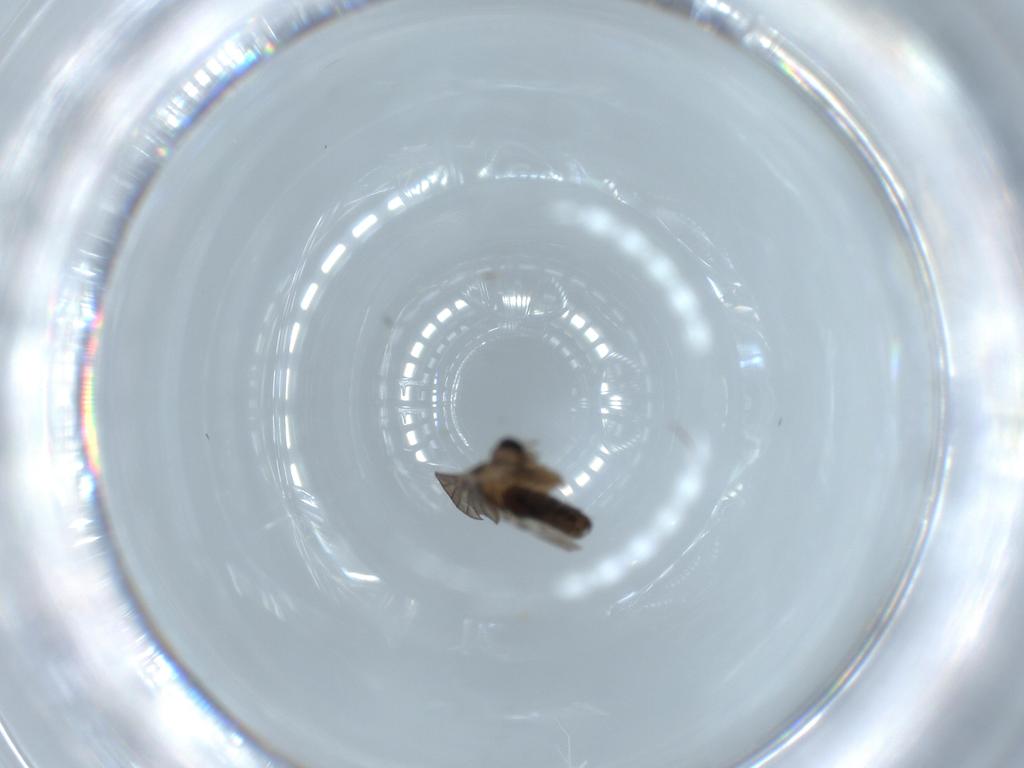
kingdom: Animalia
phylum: Arthropoda
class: Insecta
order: Diptera
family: Psychodidae
